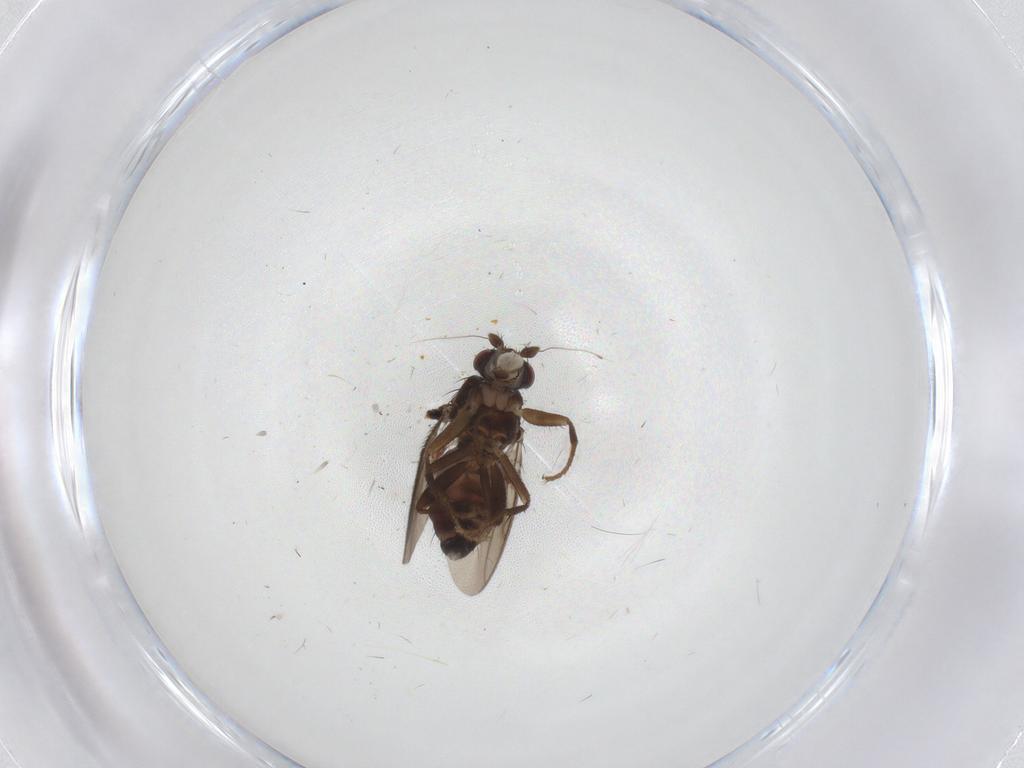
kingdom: Animalia
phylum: Arthropoda
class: Insecta
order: Diptera
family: Sphaeroceridae
